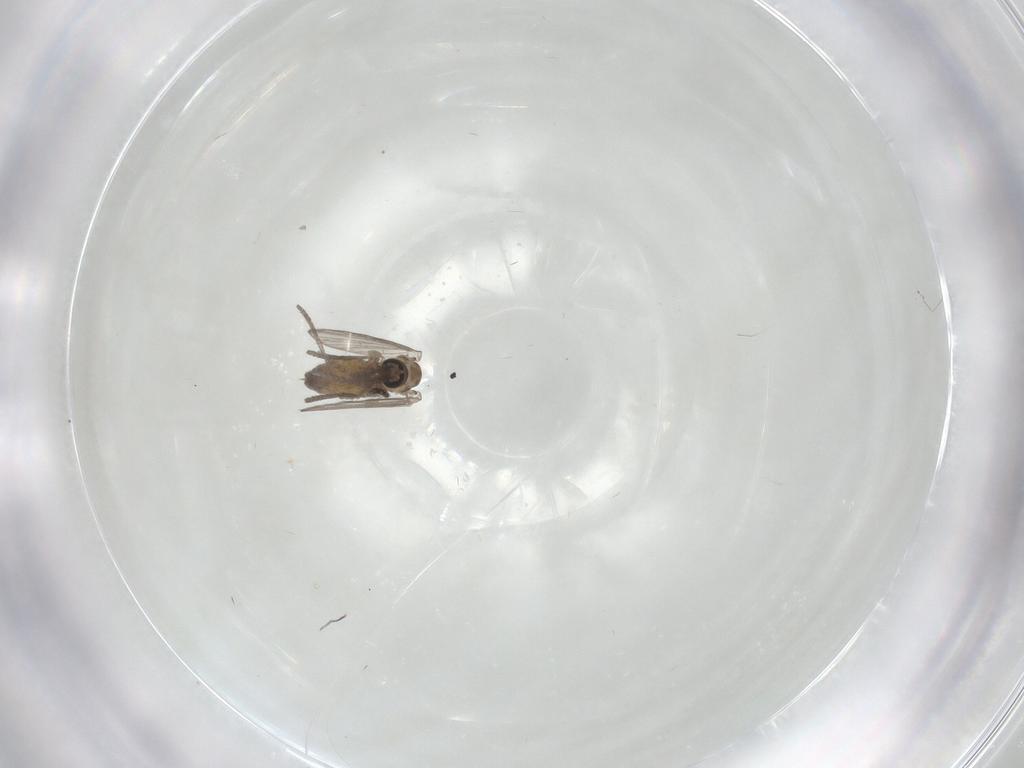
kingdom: Animalia
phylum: Arthropoda
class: Insecta
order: Diptera
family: Psychodidae
